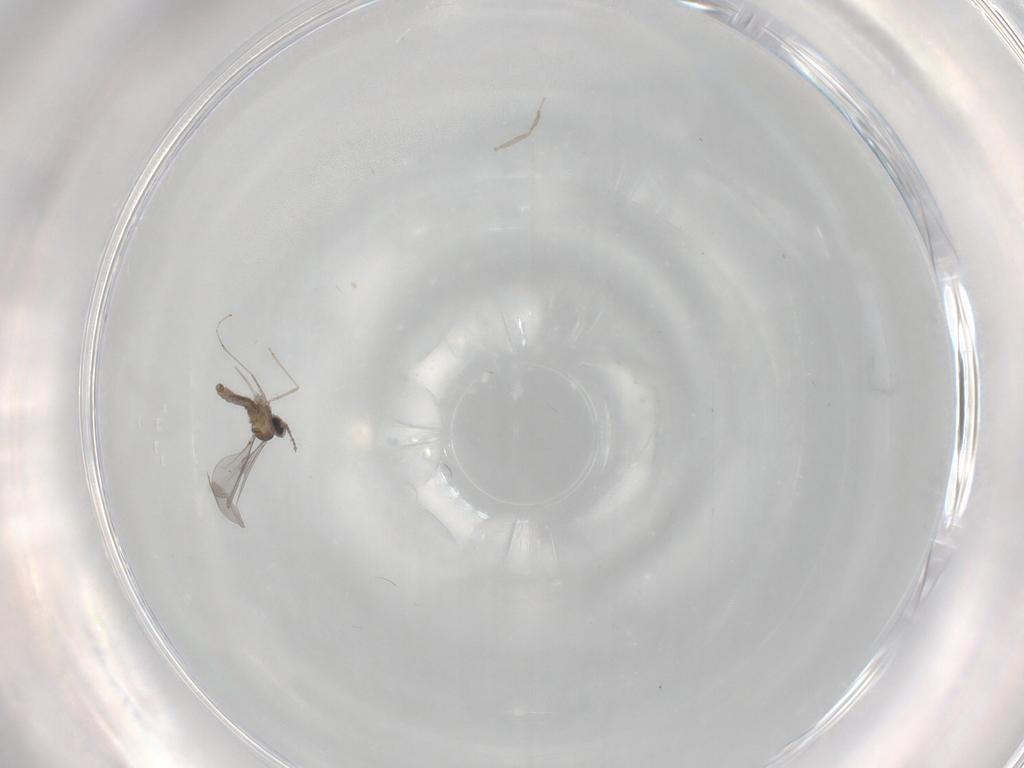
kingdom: Animalia
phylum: Arthropoda
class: Insecta
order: Diptera
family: Cecidomyiidae
